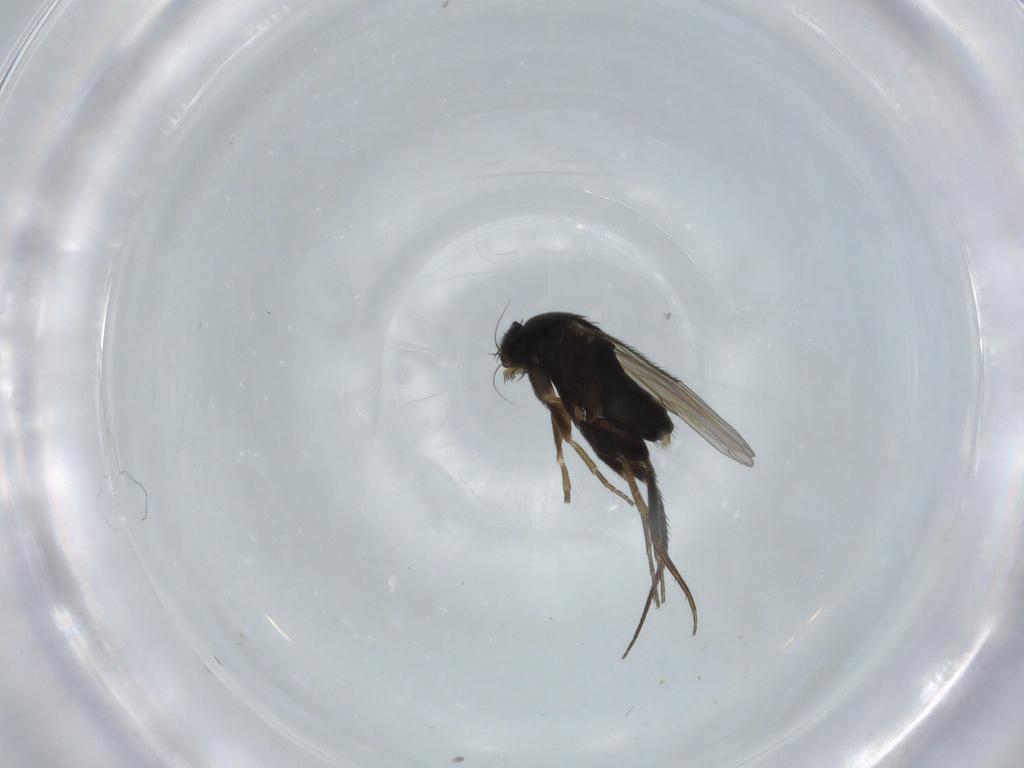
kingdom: Animalia
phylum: Arthropoda
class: Insecta
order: Diptera
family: Phoridae
